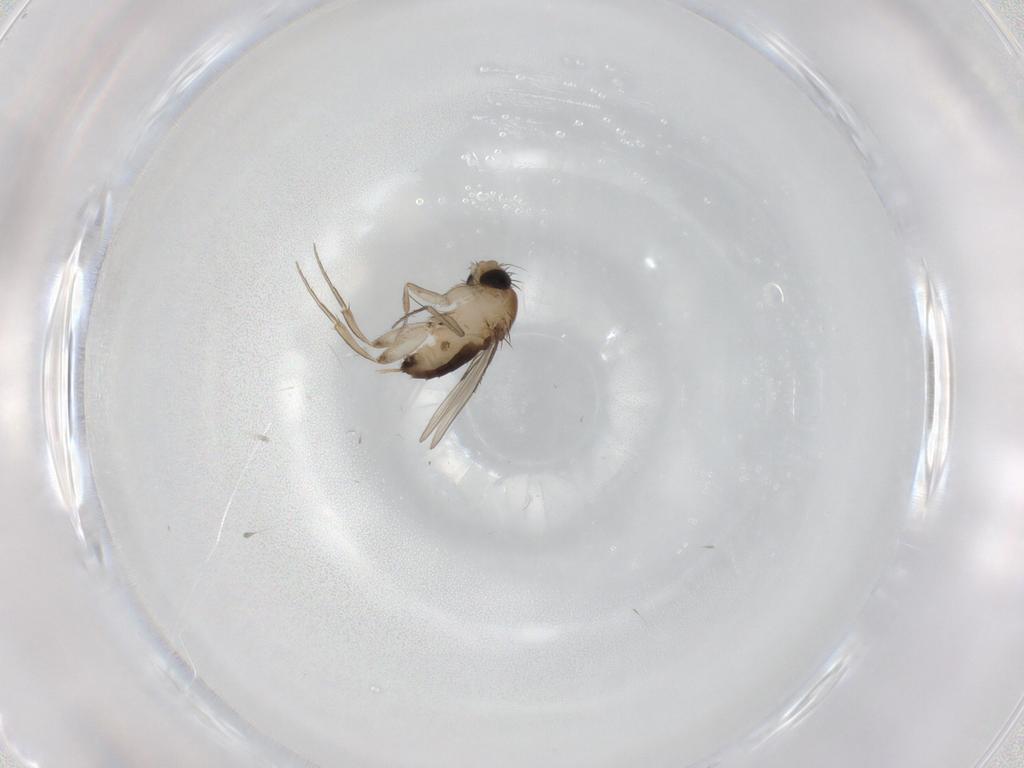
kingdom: Animalia
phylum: Arthropoda
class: Insecta
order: Diptera
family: Phoridae
